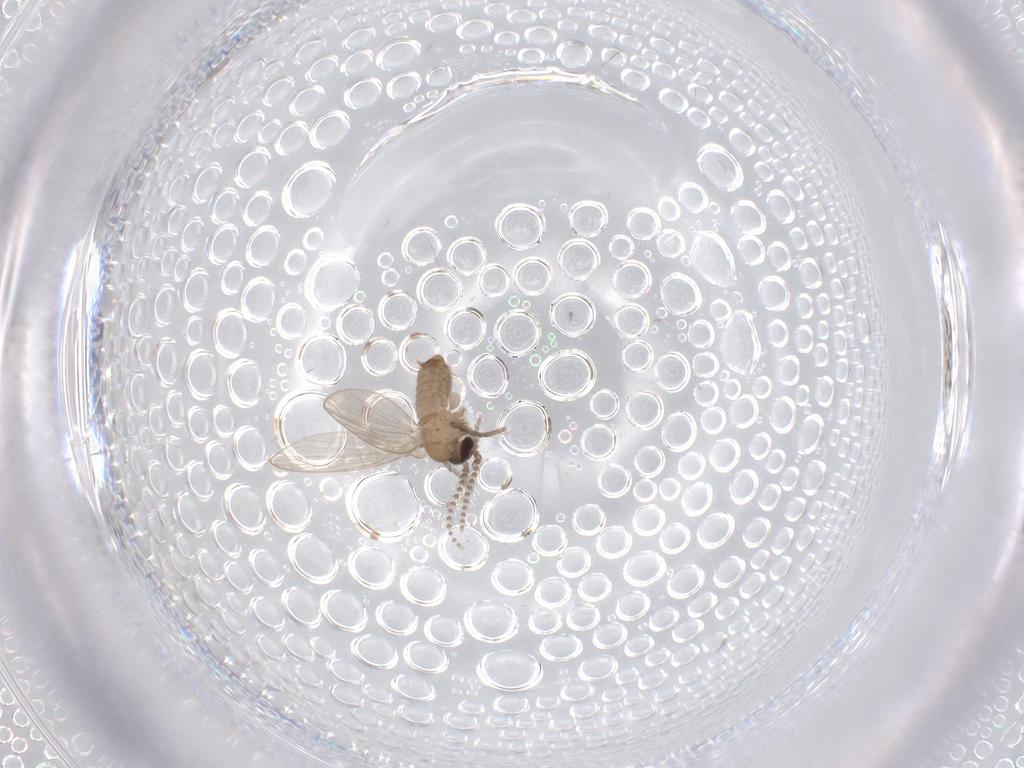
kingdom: Animalia
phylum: Arthropoda
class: Insecta
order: Diptera
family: Psychodidae
